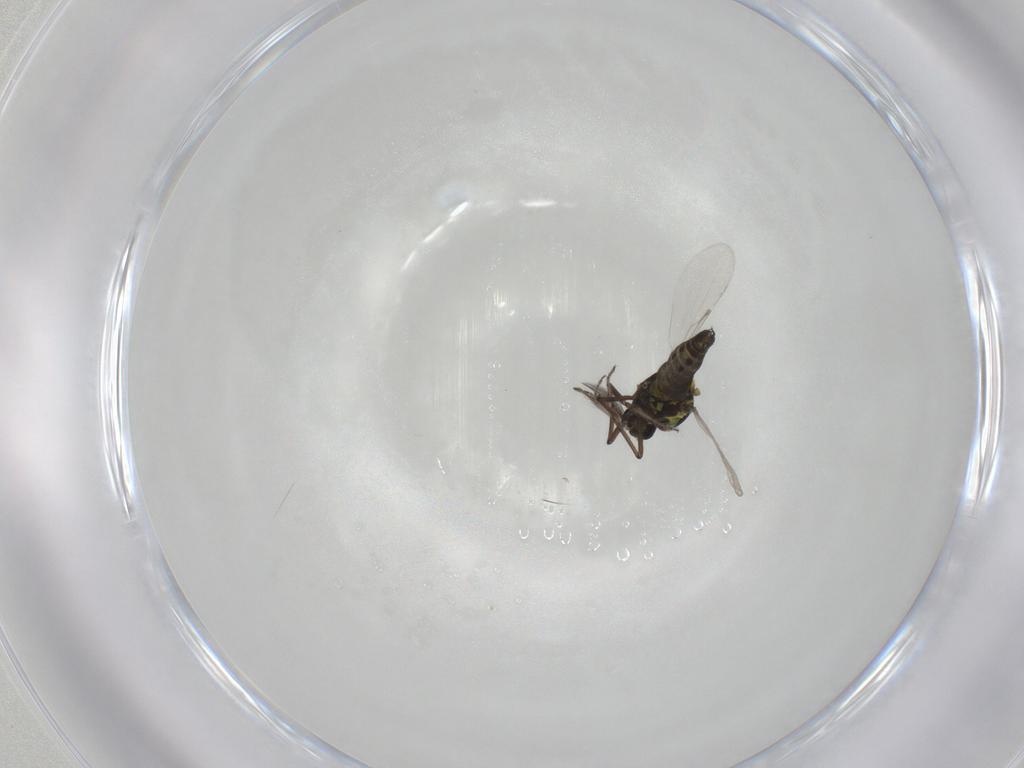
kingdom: Animalia
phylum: Arthropoda
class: Insecta
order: Diptera
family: Ceratopogonidae
